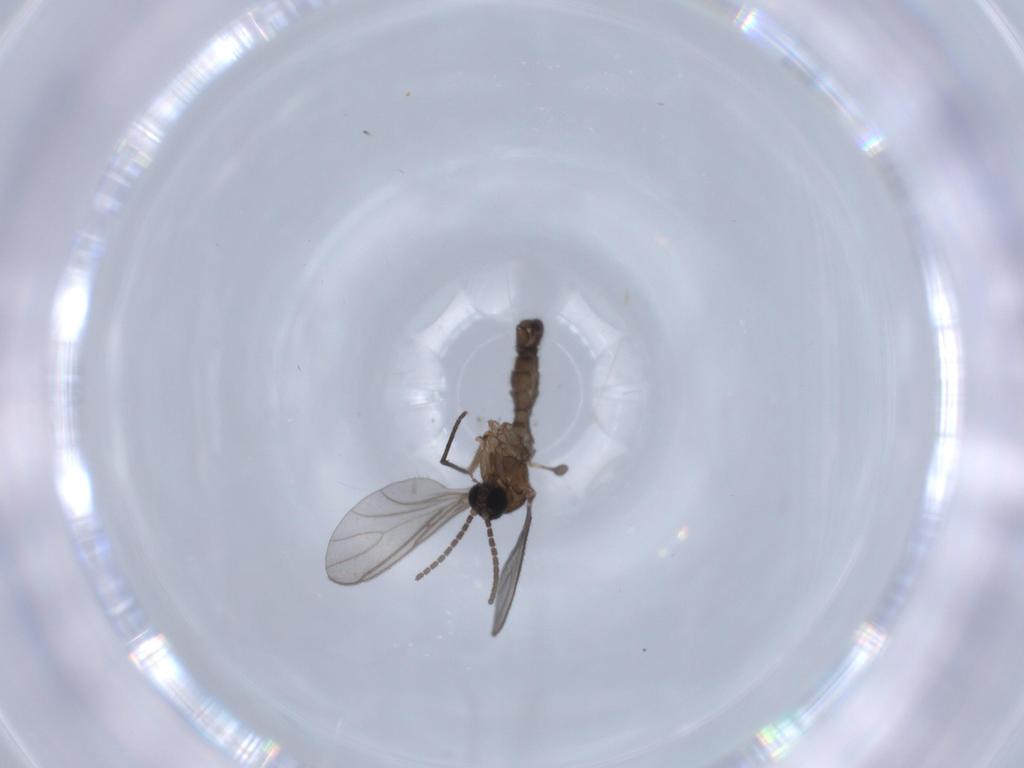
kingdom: Animalia
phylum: Arthropoda
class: Insecta
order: Diptera
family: Sciaridae
